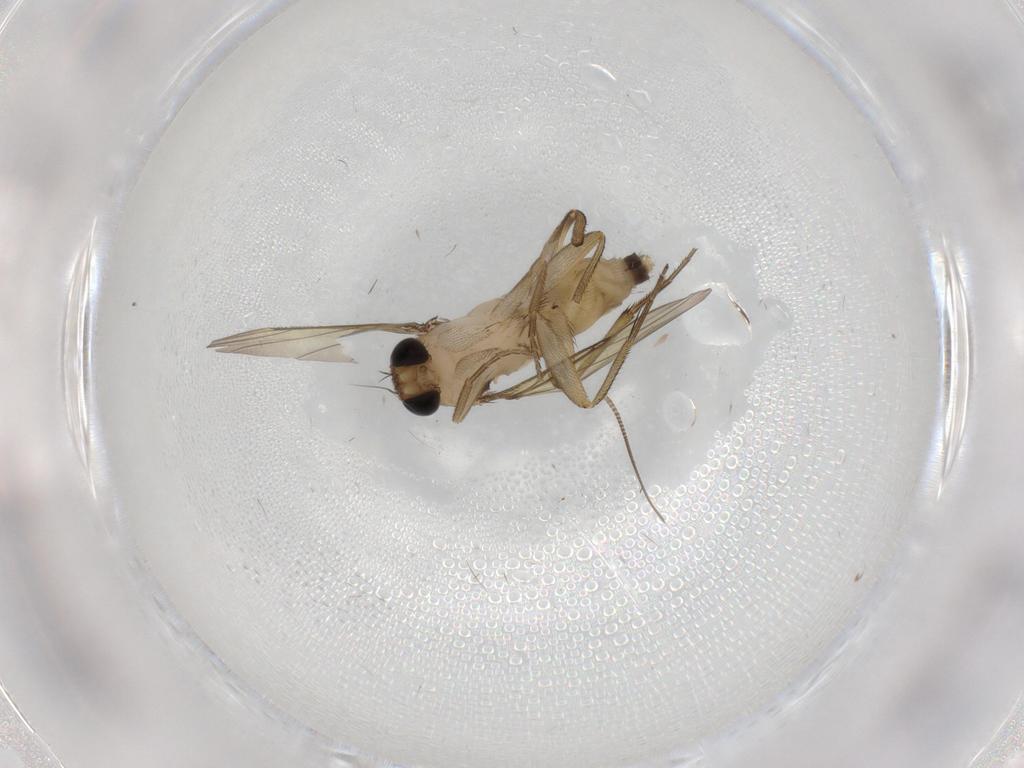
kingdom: Animalia
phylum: Arthropoda
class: Insecta
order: Diptera
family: Phoridae
